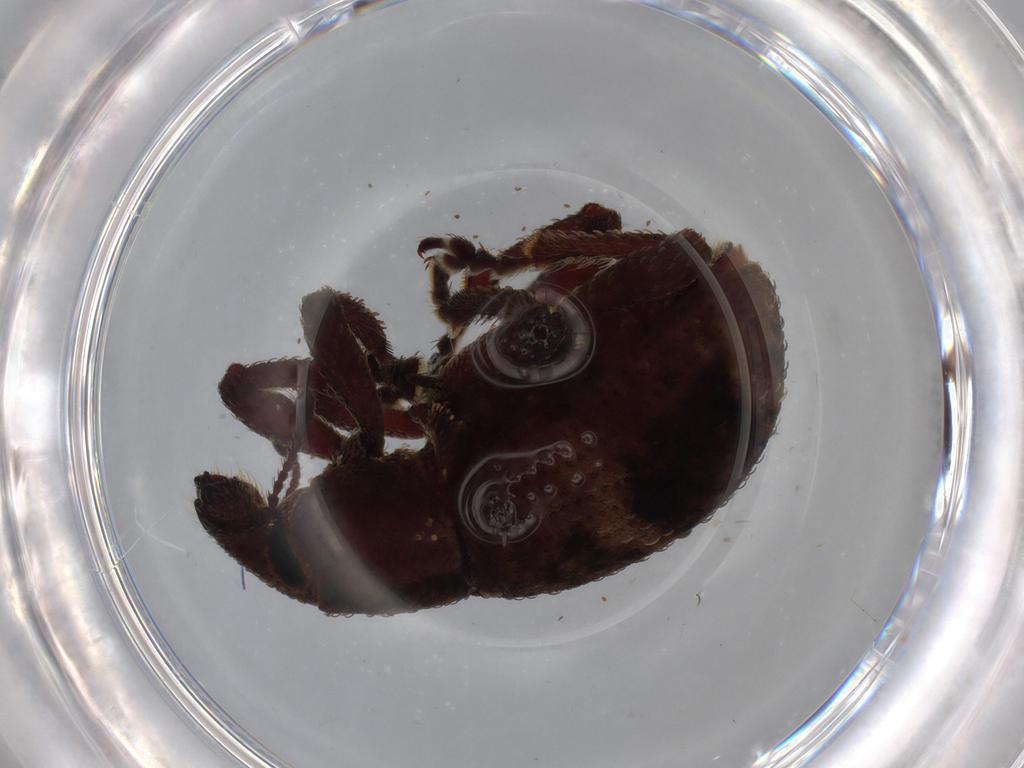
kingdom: Animalia
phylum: Arthropoda
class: Insecta
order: Coleoptera
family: Curculionidae
